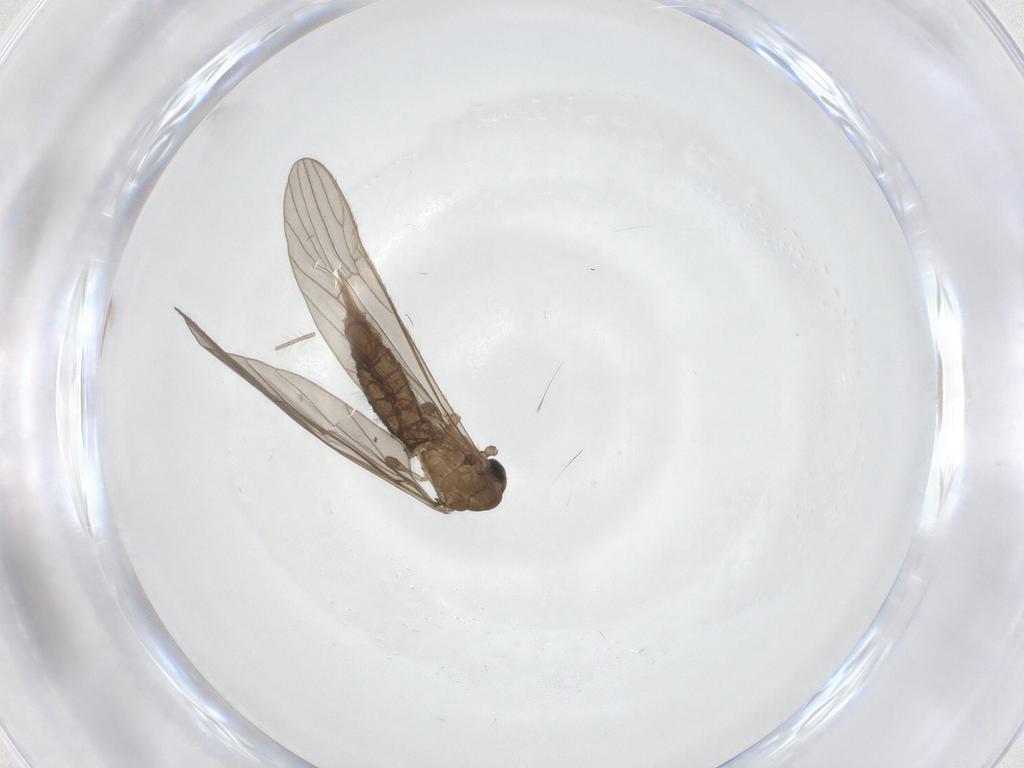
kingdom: Animalia
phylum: Arthropoda
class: Insecta
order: Diptera
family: Limoniidae
